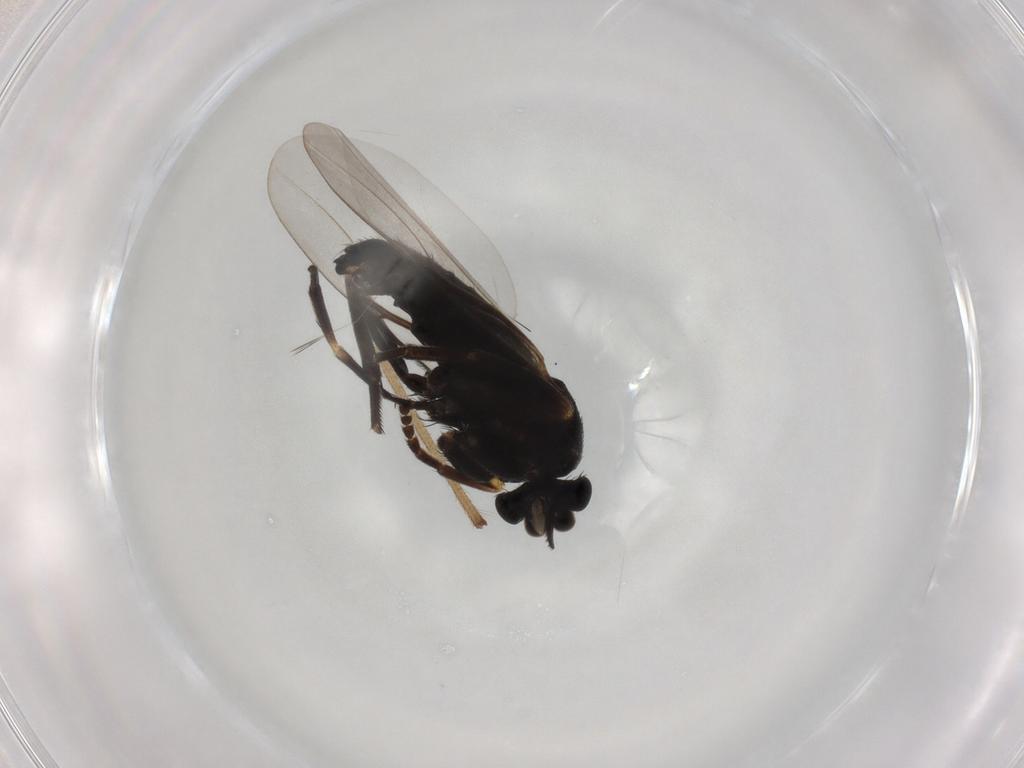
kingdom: Animalia
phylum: Arthropoda
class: Insecta
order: Diptera
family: Phoridae
